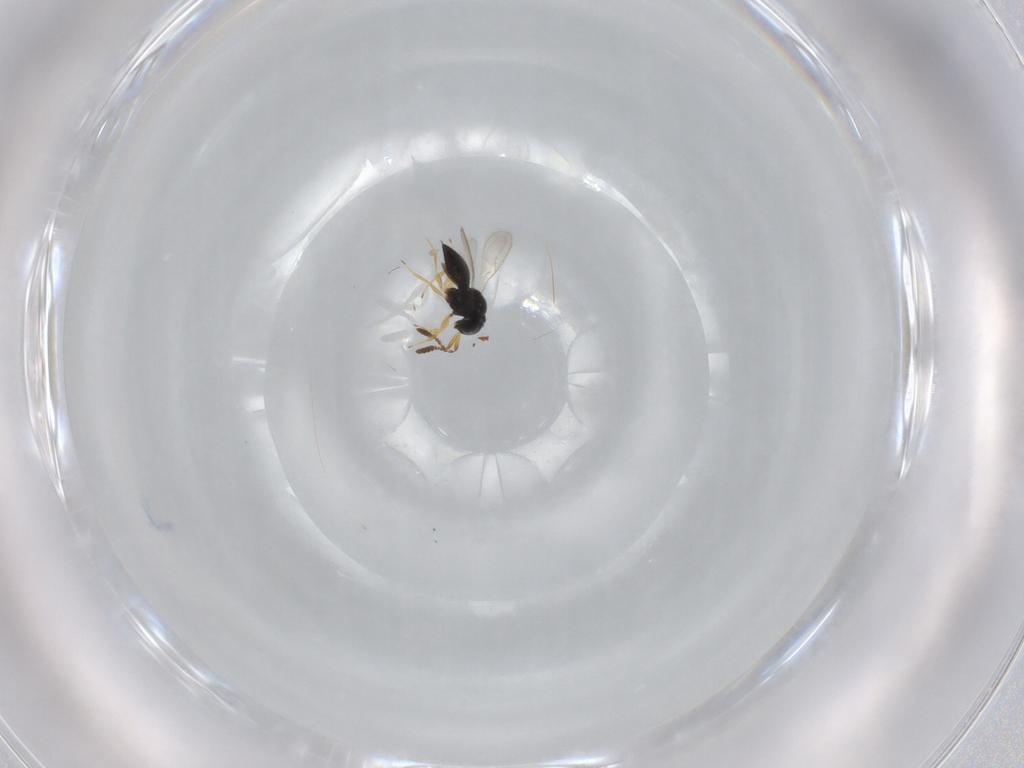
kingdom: Animalia
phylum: Arthropoda
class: Insecta
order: Hymenoptera
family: Scelionidae
